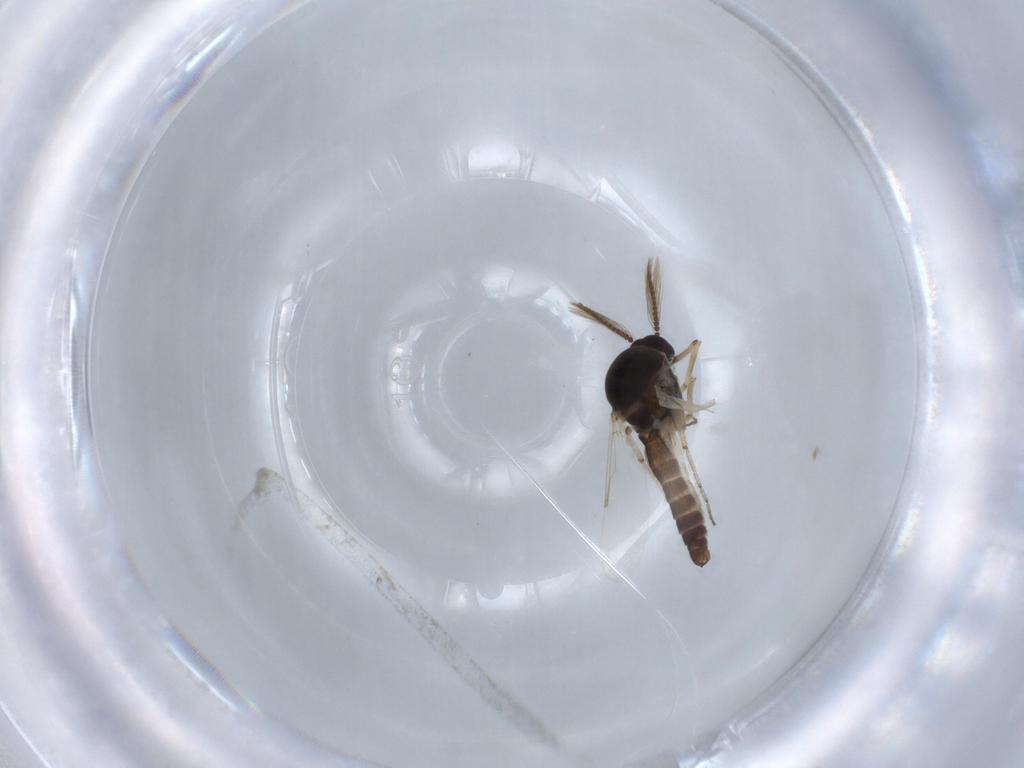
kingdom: Animalia
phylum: Arthropoda
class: Insecta
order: Diptera
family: Ceratopogonidae
